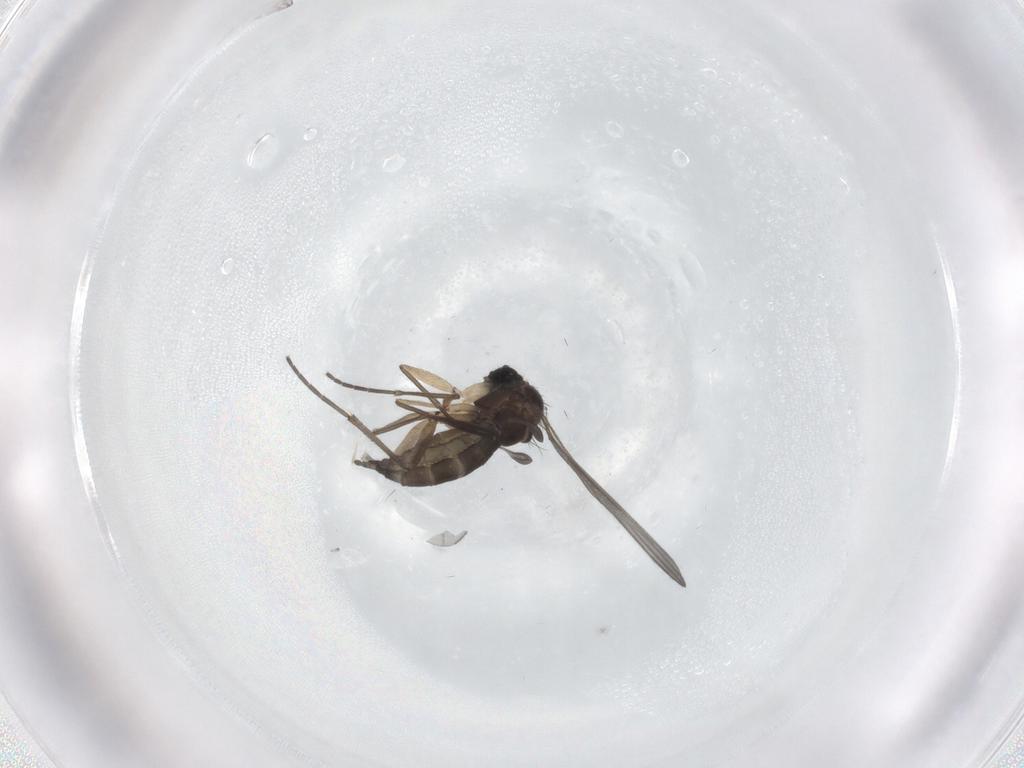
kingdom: Animalia
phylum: Arthropoda
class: Insecta
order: Diptera
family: Sciaridae
